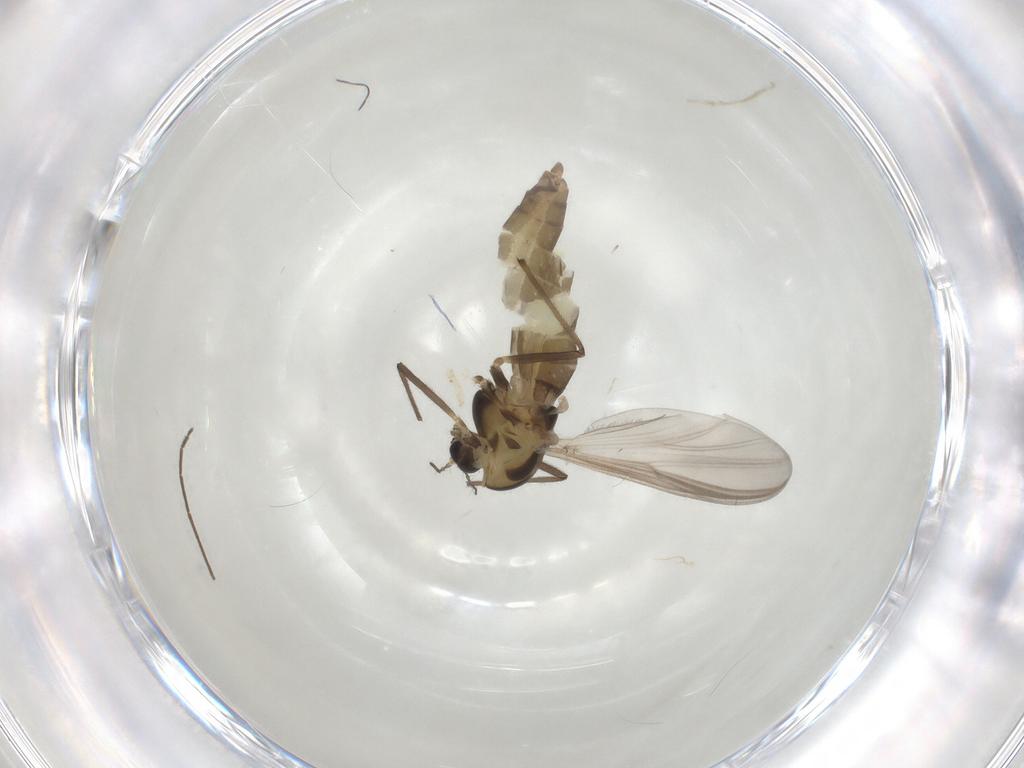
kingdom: Animalia
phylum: Arthropoda
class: Insecta
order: Diptera
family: Chironomidae
